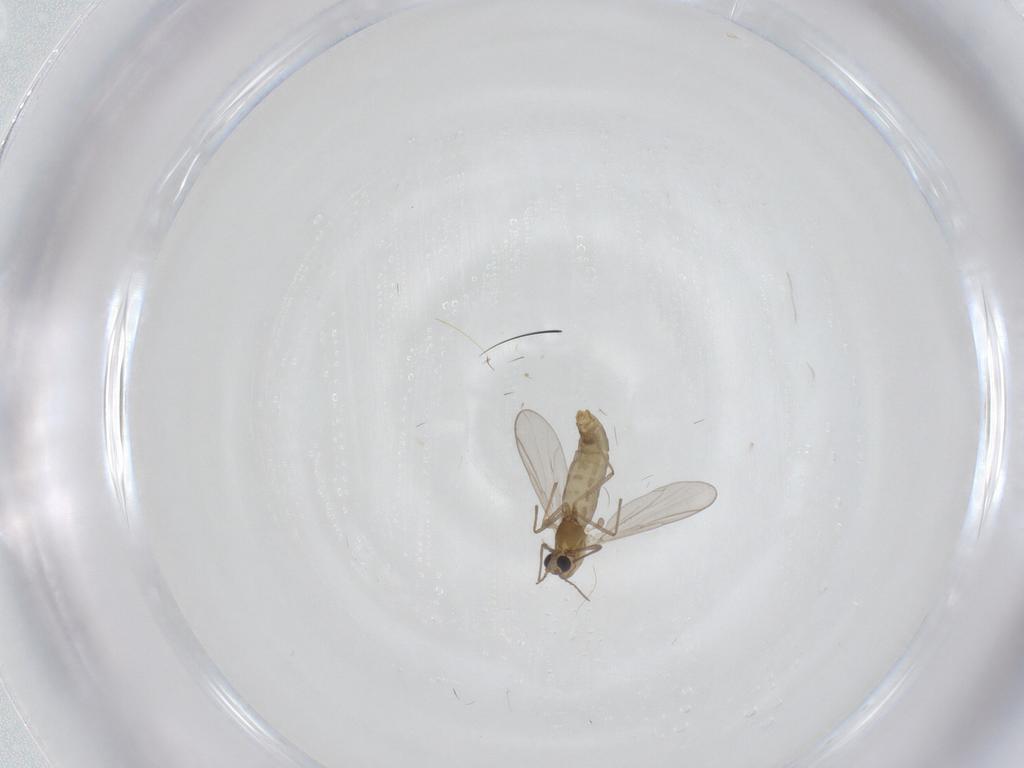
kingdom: Animalia
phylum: Arthropoda
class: Insecta
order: Diptera
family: Chironomidae
